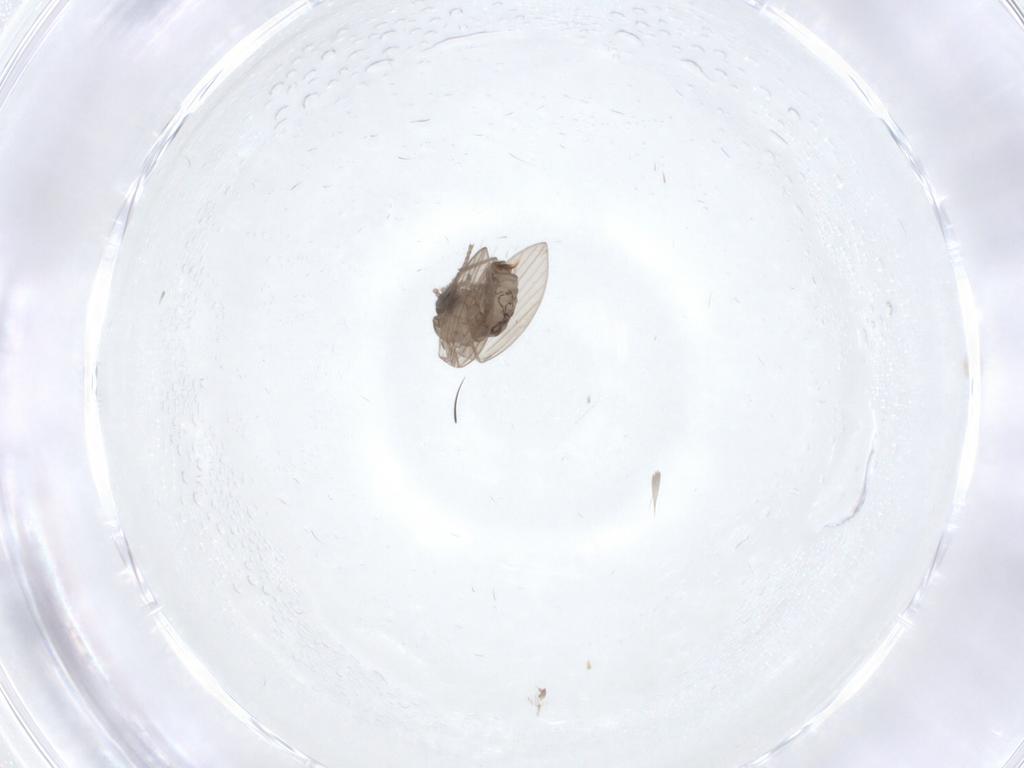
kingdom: Animalia
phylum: Arthropoda
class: Insecta
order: Diptera
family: Psychodidae
